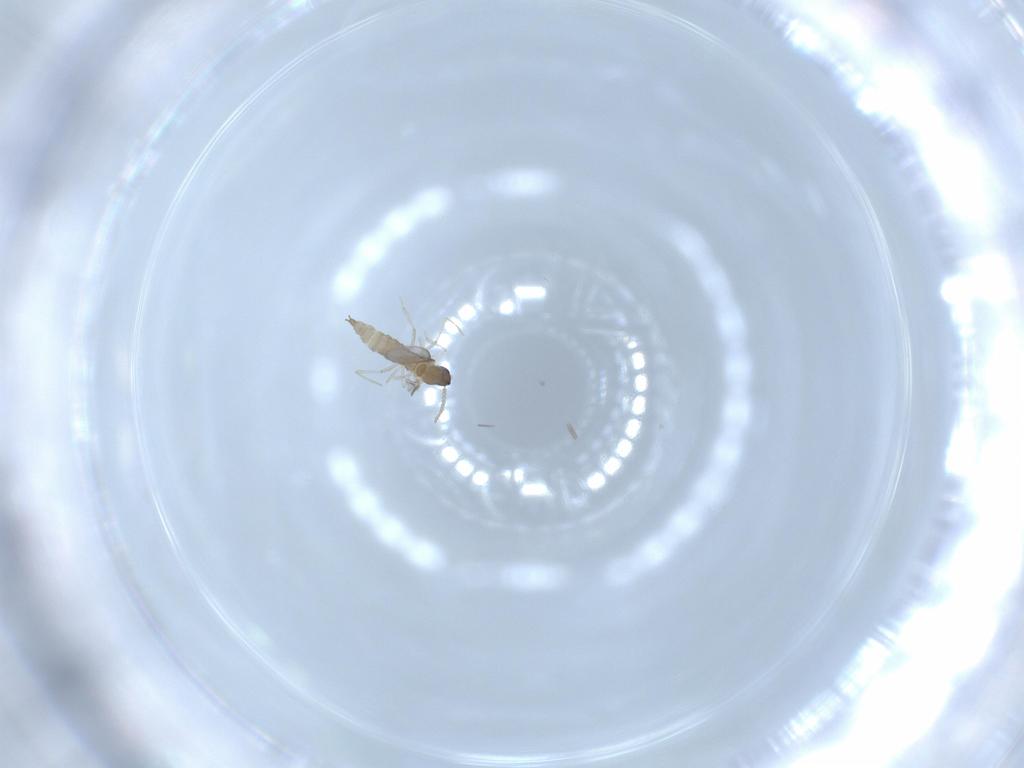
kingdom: Animalia
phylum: Arthropoda
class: Insecta
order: Diptera
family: Cecidomyiidae
